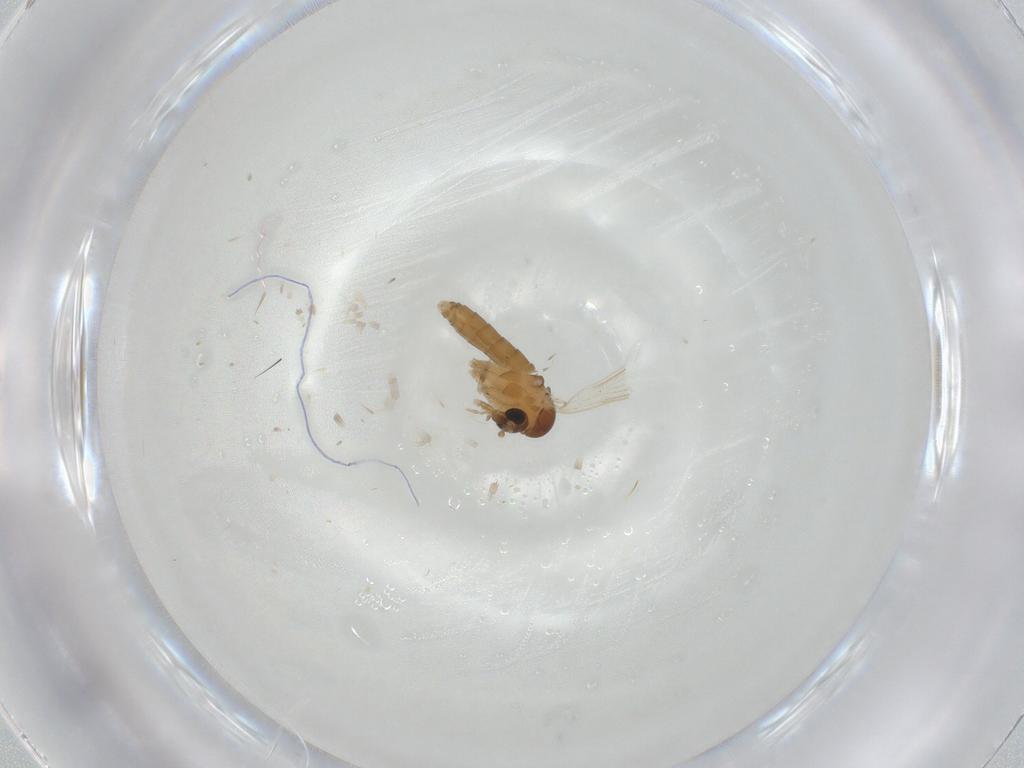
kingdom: Animalia
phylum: Arthropoda
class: Insecta
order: Diptera
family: Psychodidae
